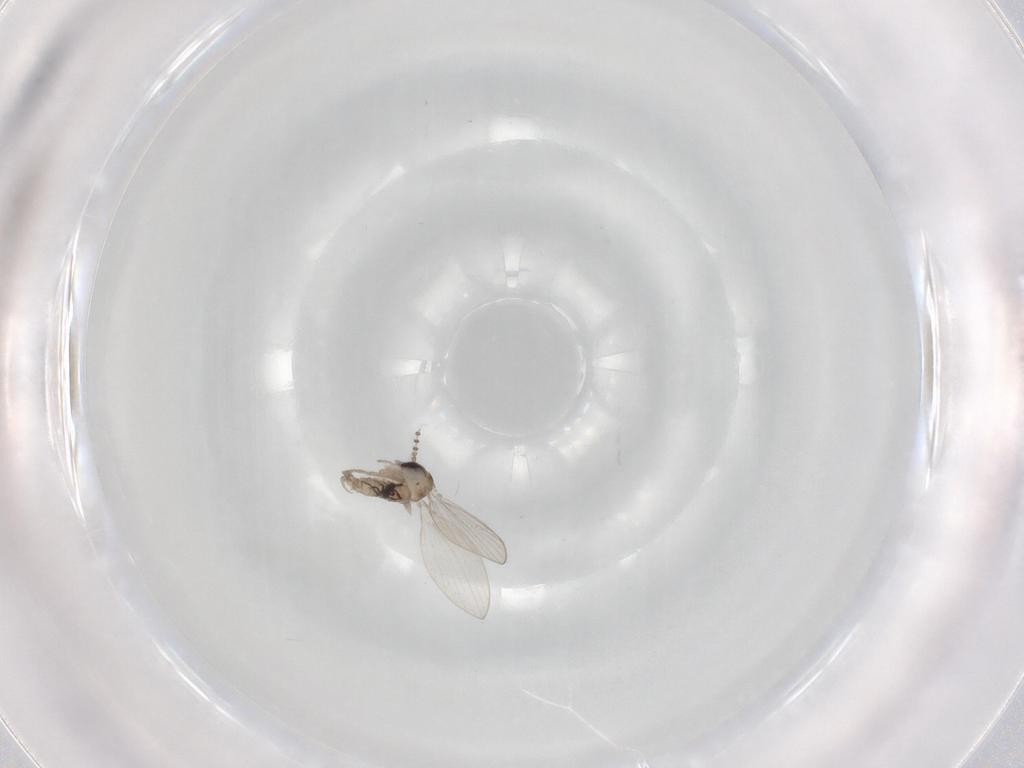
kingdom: Animalia
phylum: Arthropoda
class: Insecta
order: Diptera
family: Psychodidae
